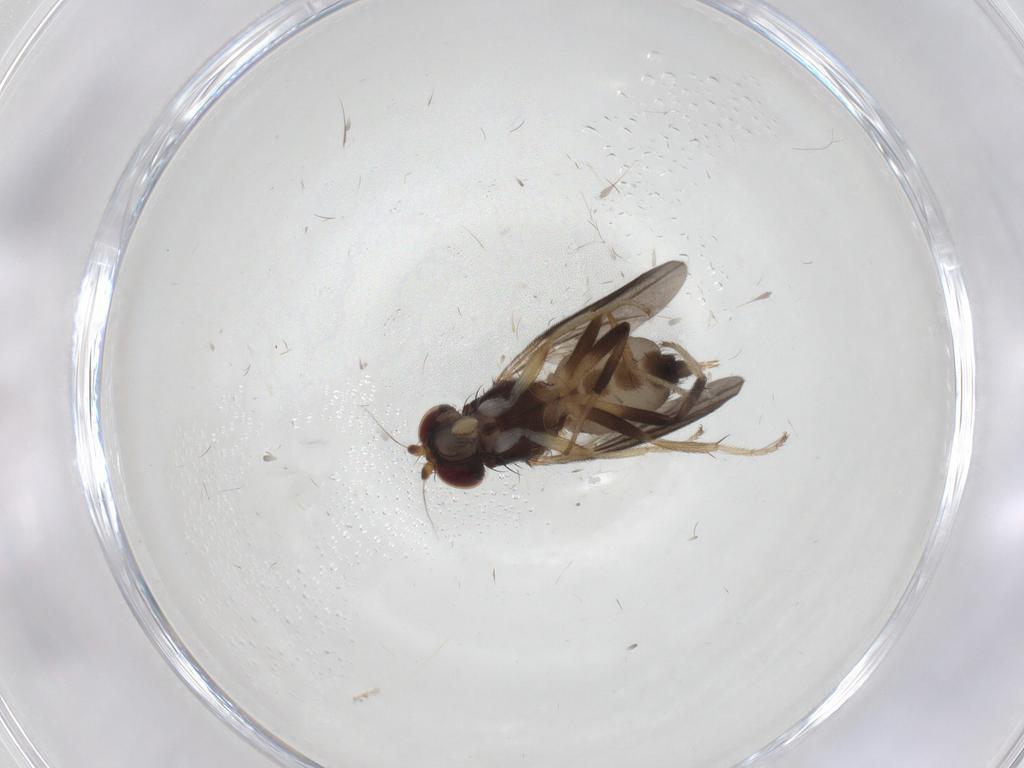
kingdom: Animalia
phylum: Arthropoda
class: Insecta
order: Diptera
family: Clusiidae
